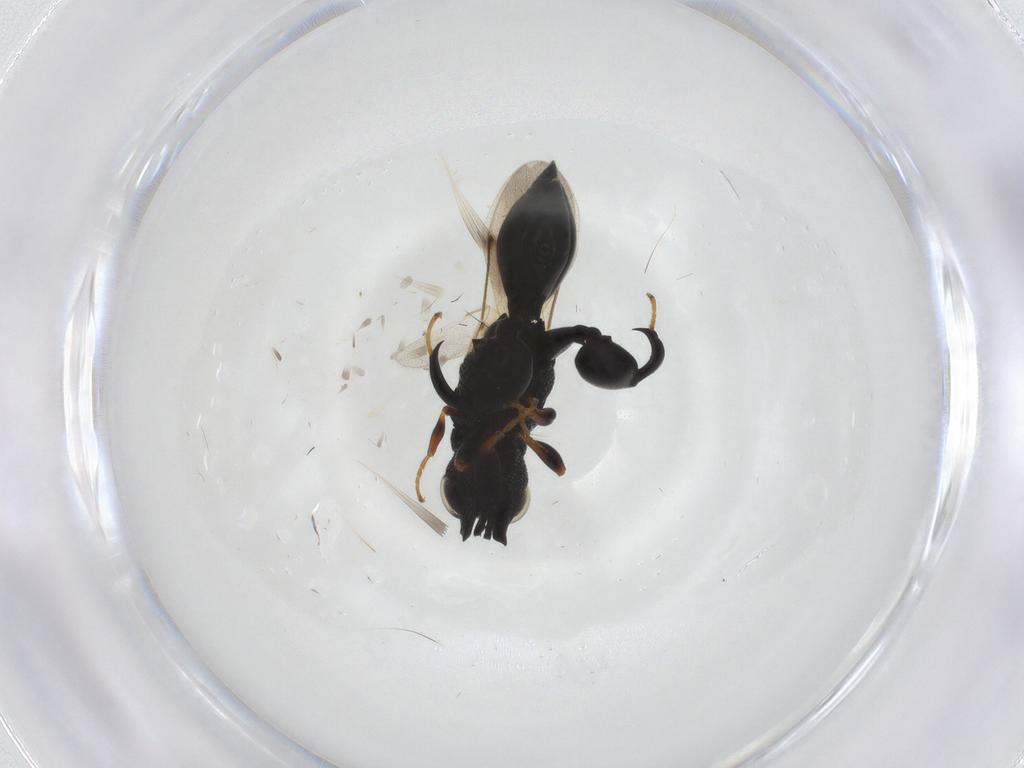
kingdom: Animalia
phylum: Arthropoda
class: Insecta
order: Hymenoptera
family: Chalcididae
